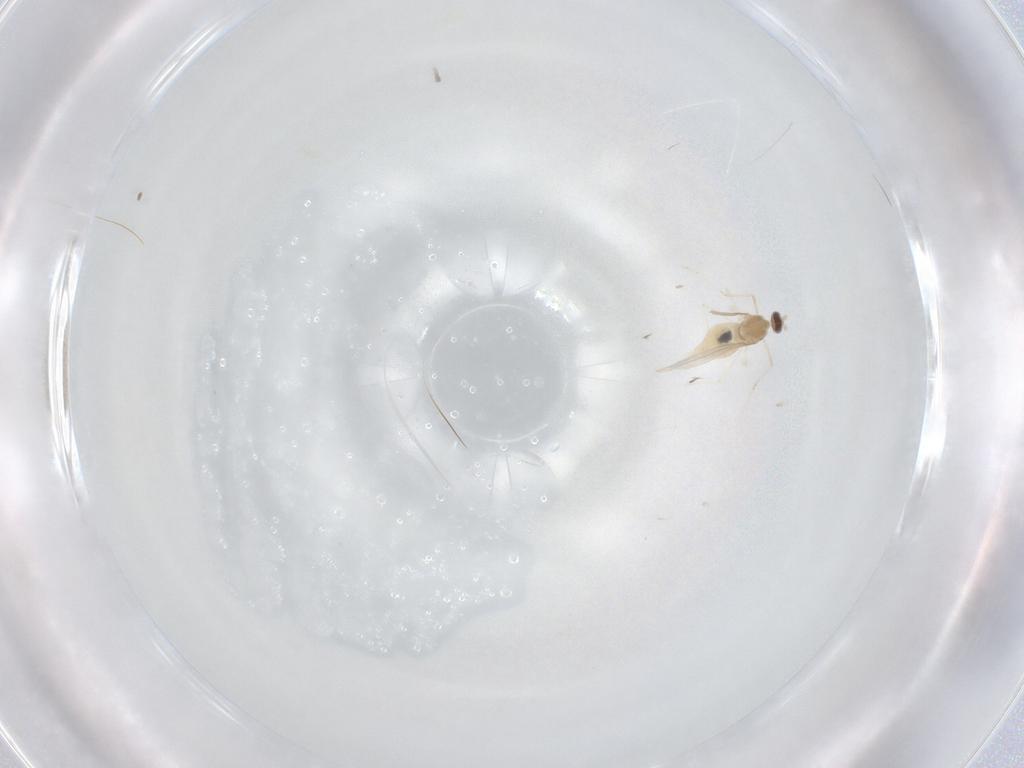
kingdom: Animalia
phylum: Arthropoda
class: Insecta
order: Diptera
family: Cecidomyiidae
